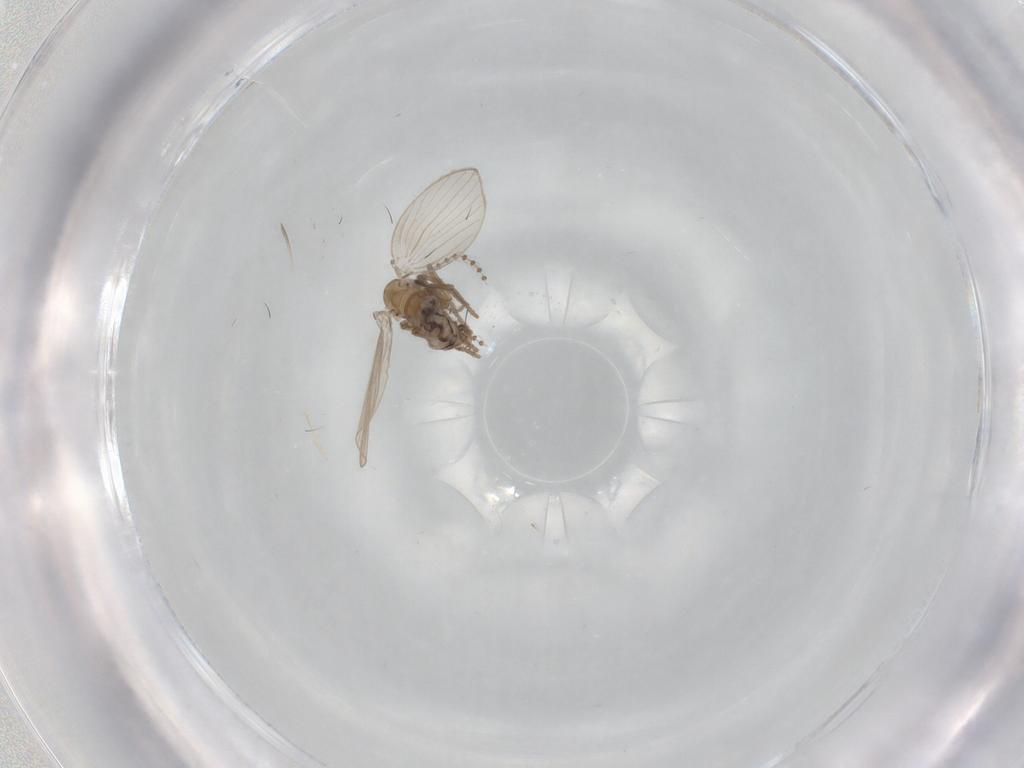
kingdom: Animalia
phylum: Arthropoda
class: Insecta
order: Diptera
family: Psychodidae
